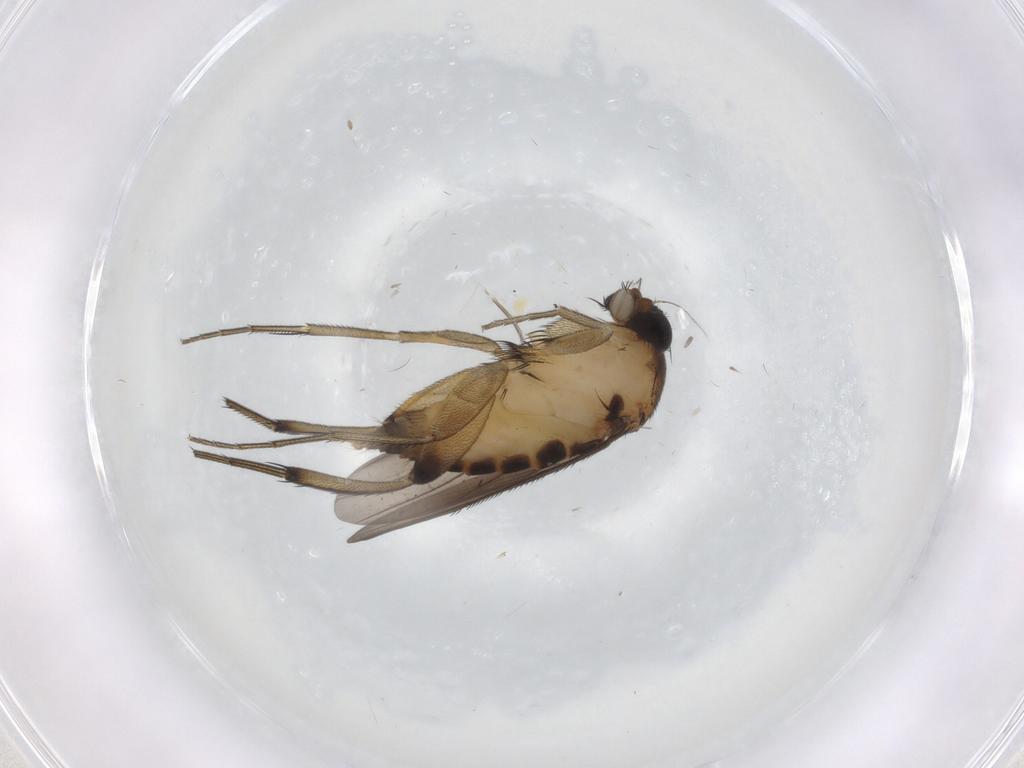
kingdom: Animalia
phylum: Arthropoda
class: Insecta
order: Diptera
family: Phoridae
